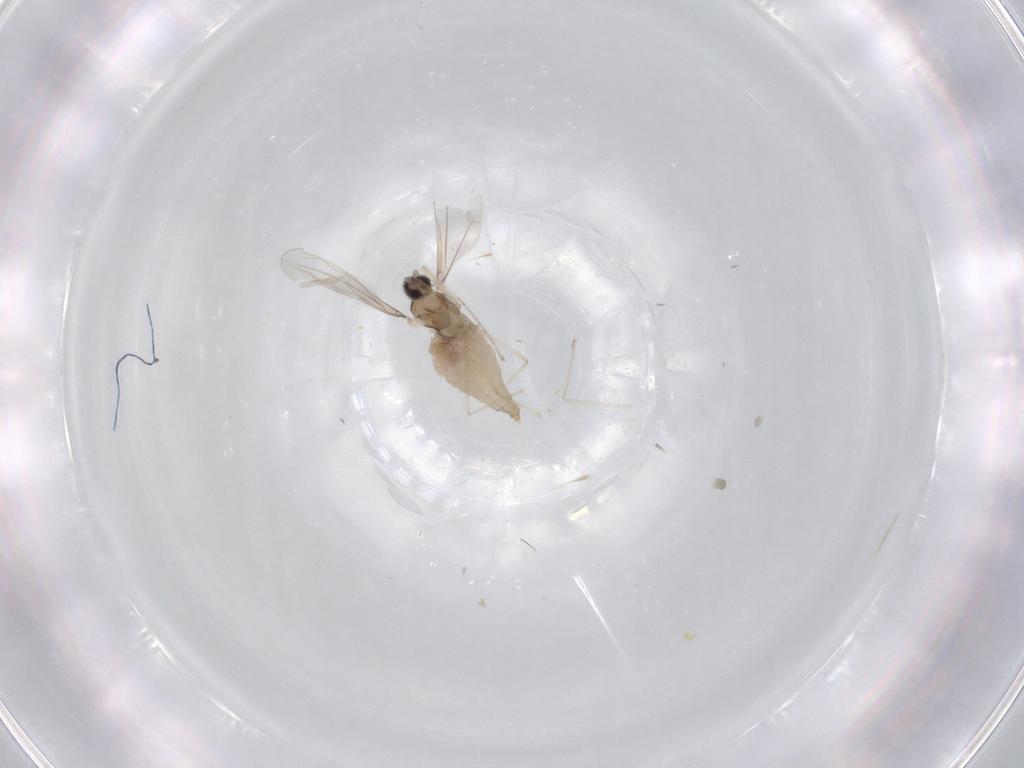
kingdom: Animalia
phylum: Arthropoda
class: Insecta
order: Diptera
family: Cecidomyiidae
